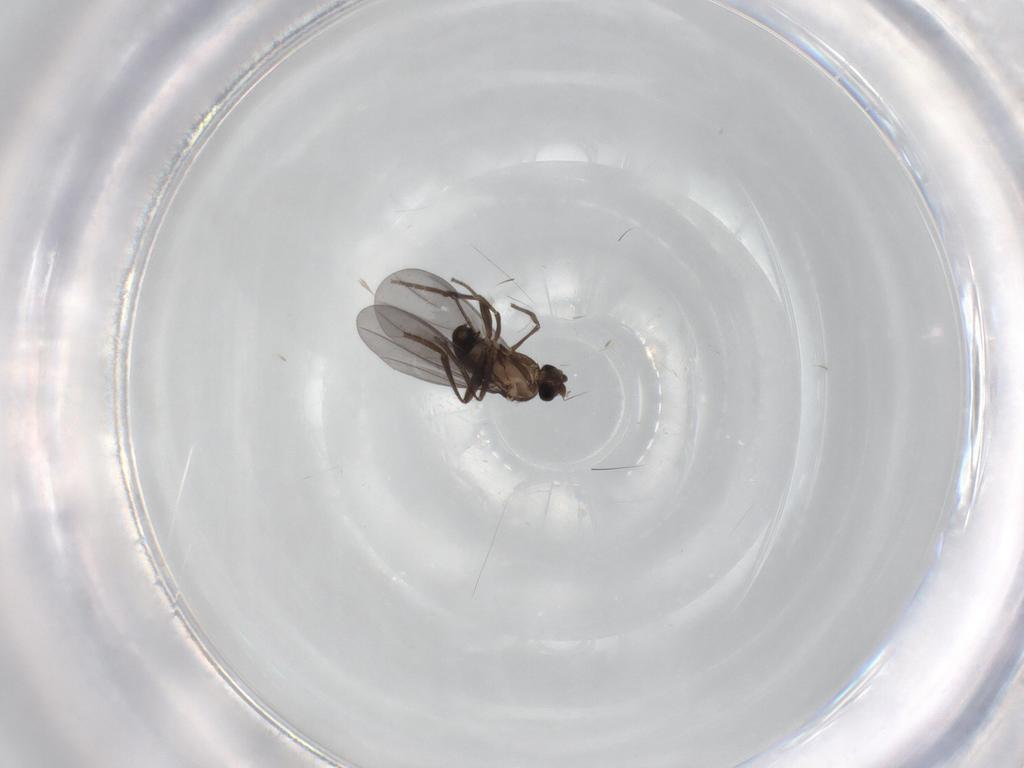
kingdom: Animalia
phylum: Arthropoda
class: Insecta
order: Diptera
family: Phoridae
